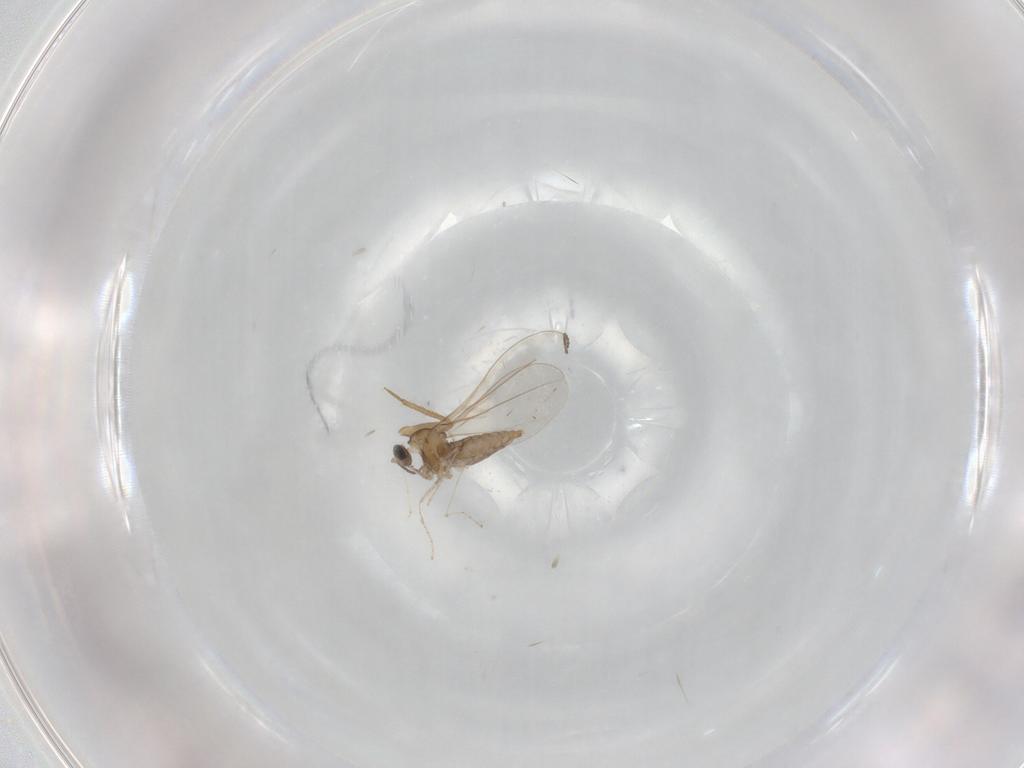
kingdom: Animalia
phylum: Arthropoda
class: Insecta
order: Diptera
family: Cecidomyiidae
